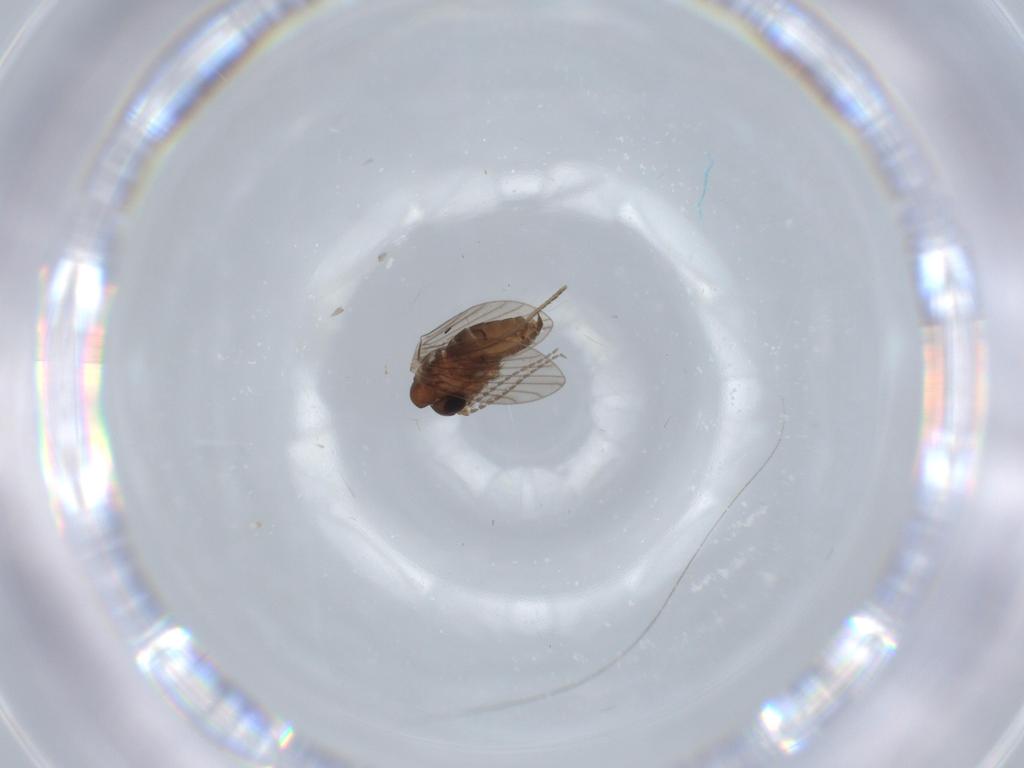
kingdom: Animalia
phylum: Arthropoda
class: Insecta
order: Diptera
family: Psychodidae
